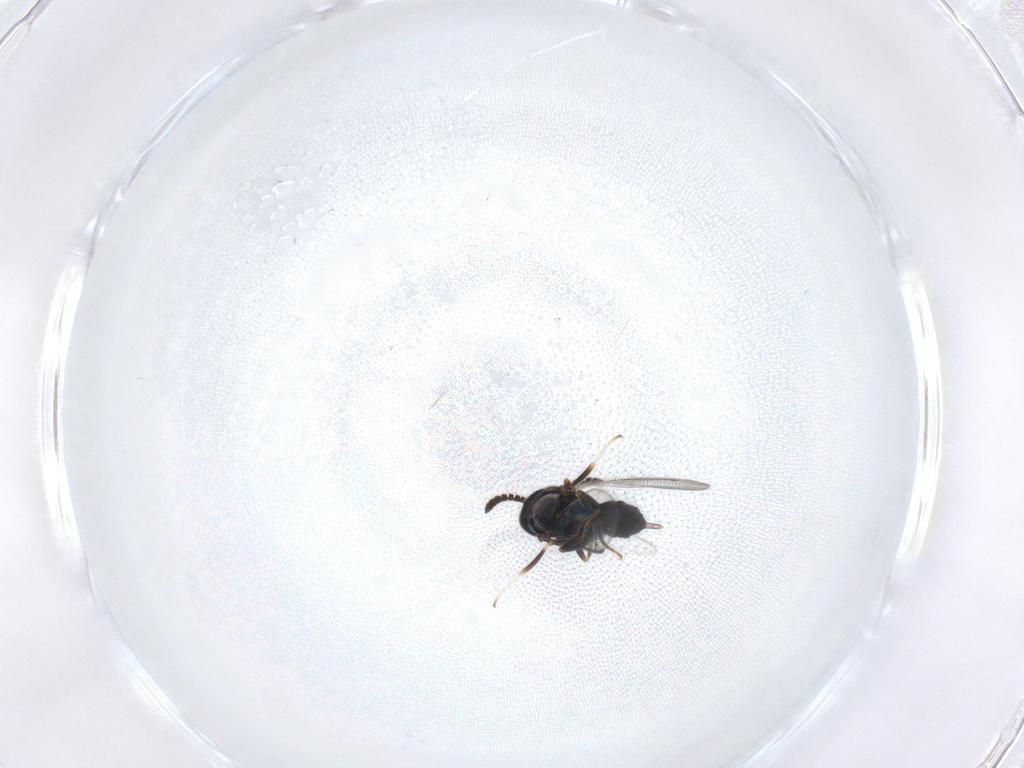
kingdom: Animalia
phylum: Arthropoda
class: Insecta
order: Hymenoptera
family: Cleonyminae
